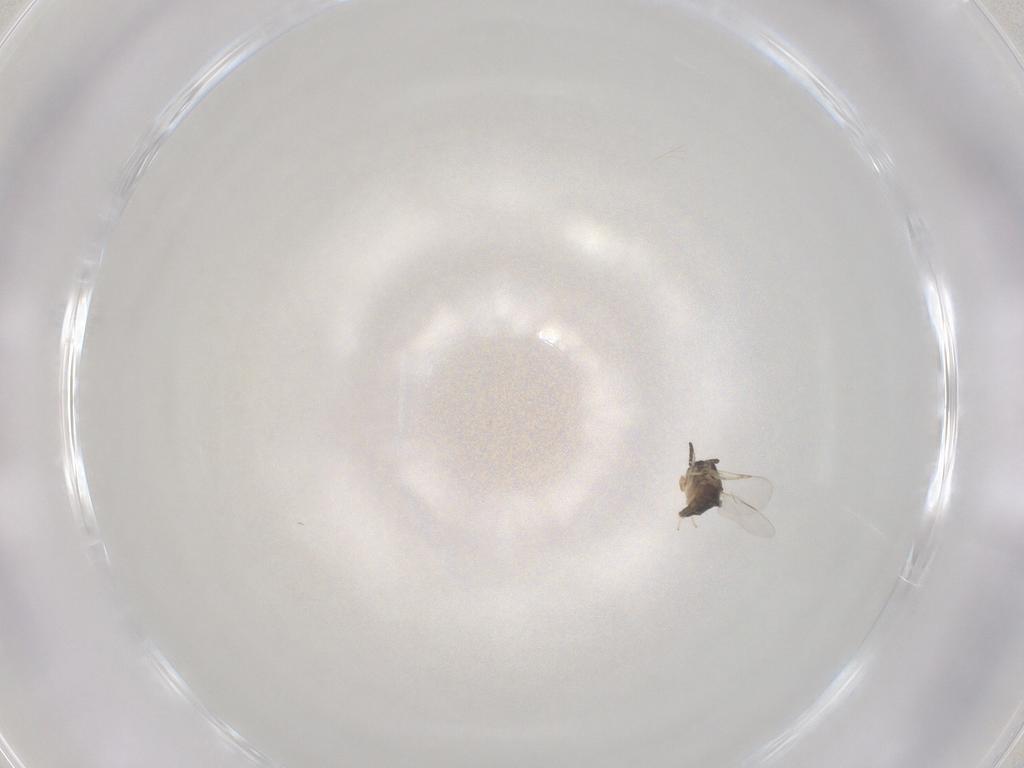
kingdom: Animalia
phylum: Arthropoda
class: Insecta
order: Diptera
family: Scatopsidae
